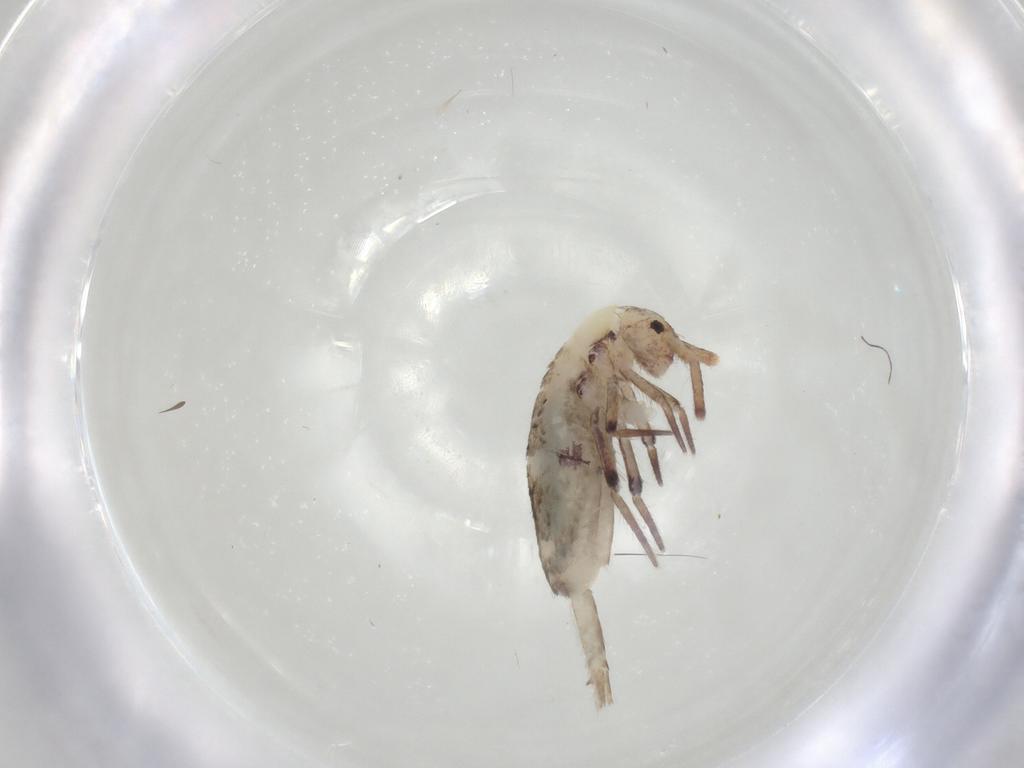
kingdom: Animalia
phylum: Arthropoda
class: Collembola
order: Entomobryomorpha
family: Entomobryidae
